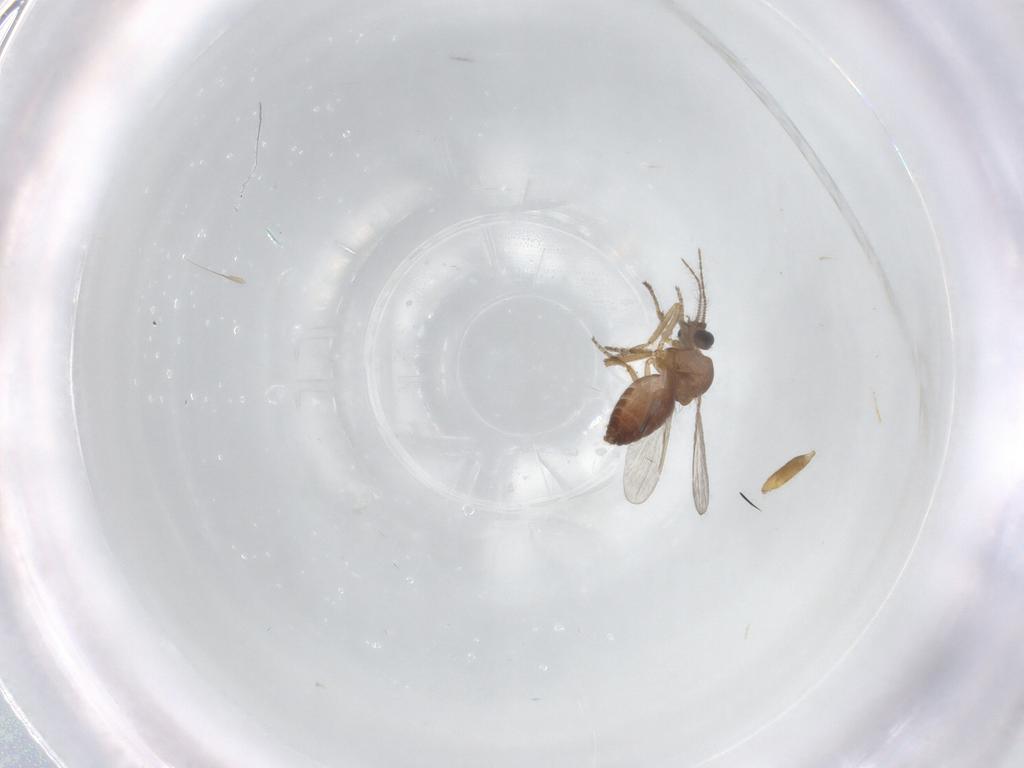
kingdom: Animalia
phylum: Arthropoda
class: Insecta
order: Diptera
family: Ceratopogonidae
